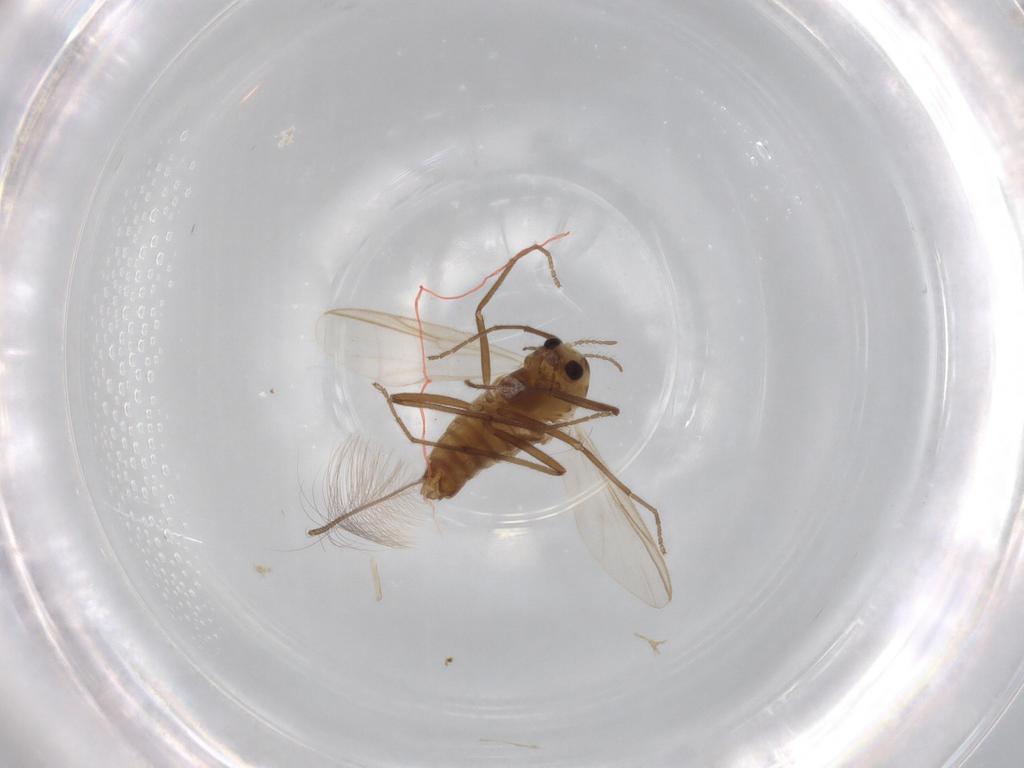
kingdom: Animalia
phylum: Arthropoda
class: Insecta
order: Diptera
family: Chironomidae
